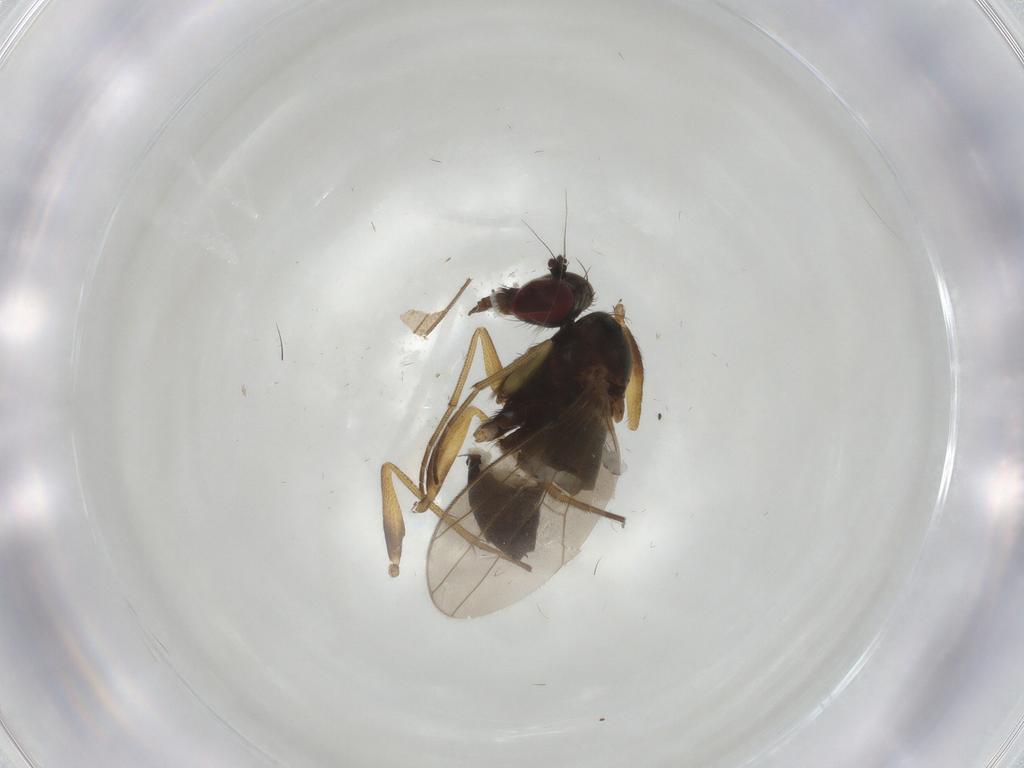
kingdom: Animalia
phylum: Arthropoda
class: Insecta
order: Diptera
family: Dolichopodidae
